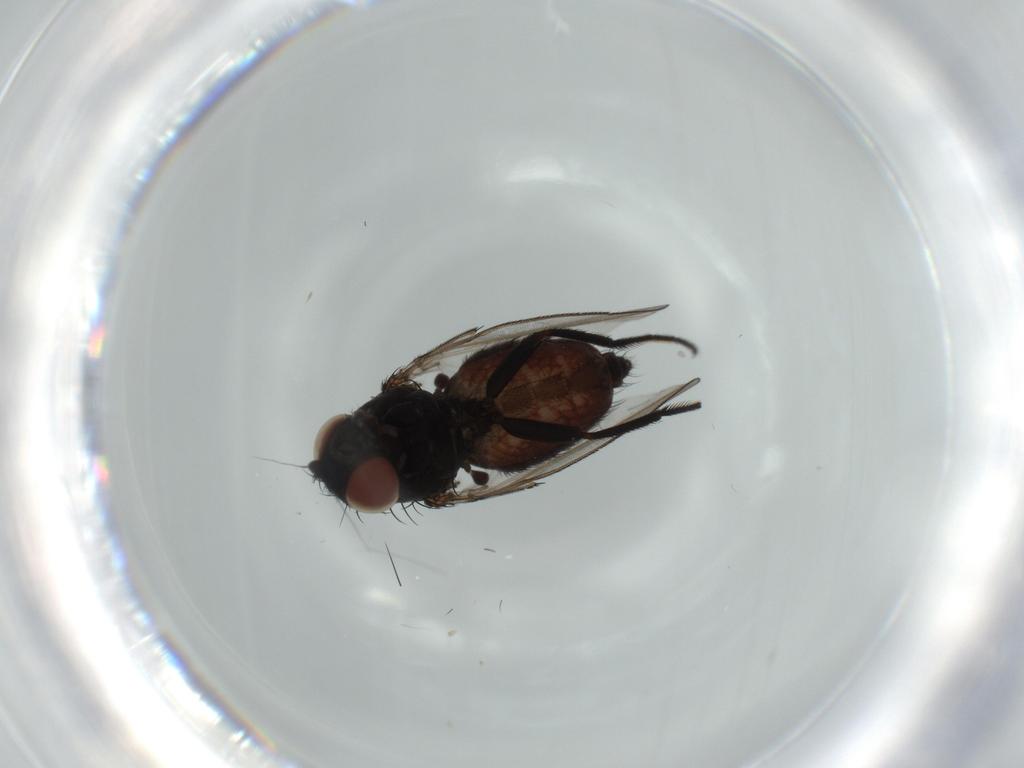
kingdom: Animalia
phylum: Arthropoda
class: Insecta
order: Diptera
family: Milichiidae
